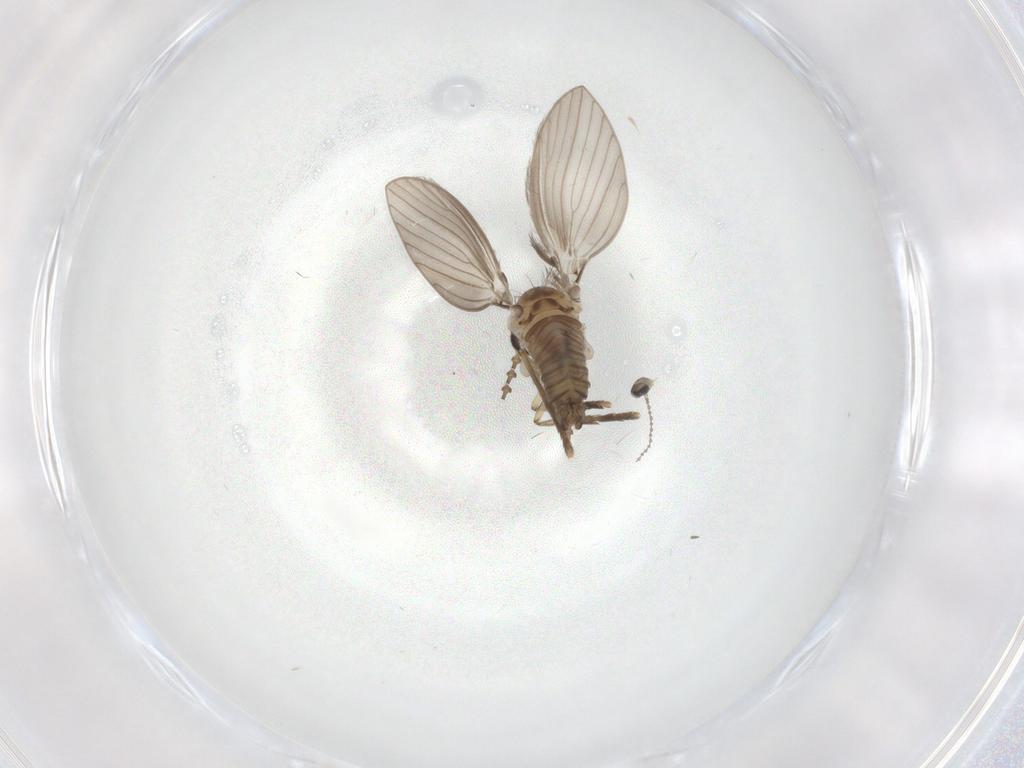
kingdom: Animalia
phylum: Arthropoda
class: Insecta
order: Diptera
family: Psychodidae
